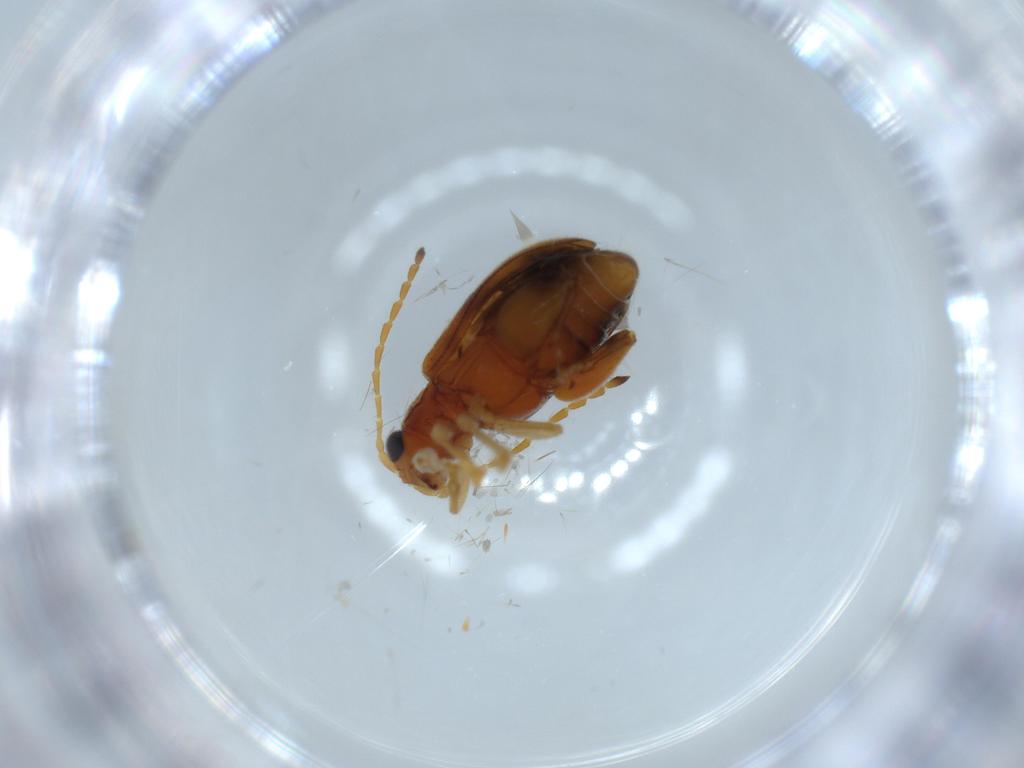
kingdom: Animalia
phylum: Arthropoda
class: Insecta
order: Coleoptera
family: Chrysomelidae
